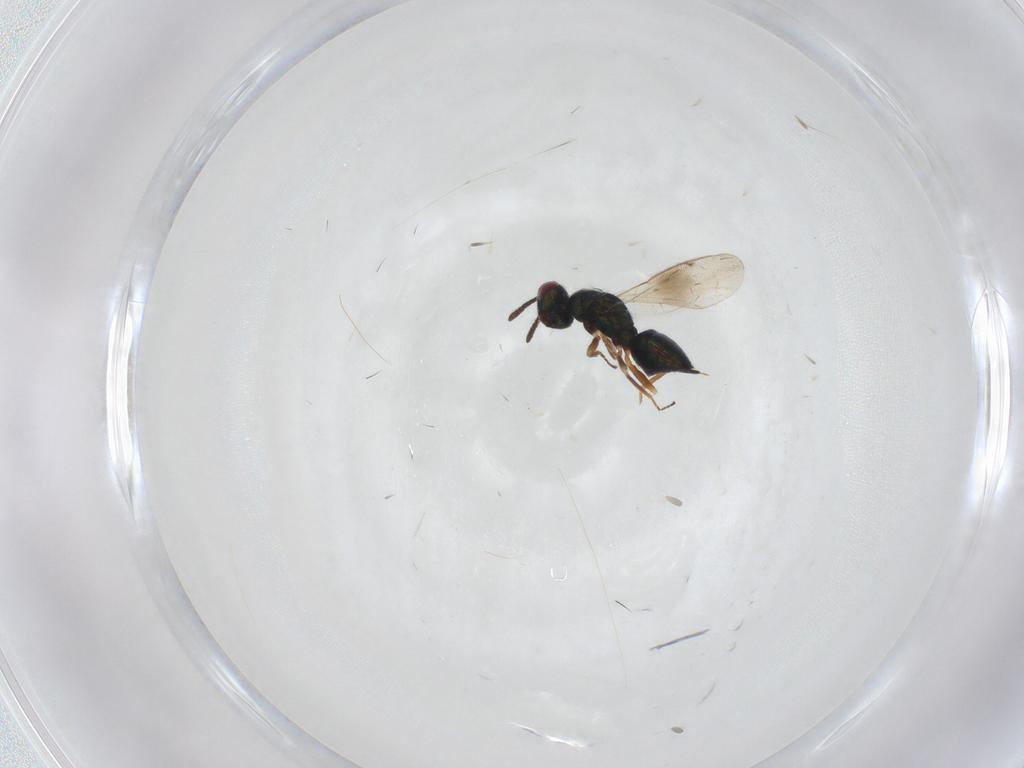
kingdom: Animalia
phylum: Arthropoda
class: Insecta
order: Hymenoptera
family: Tetracampidae
